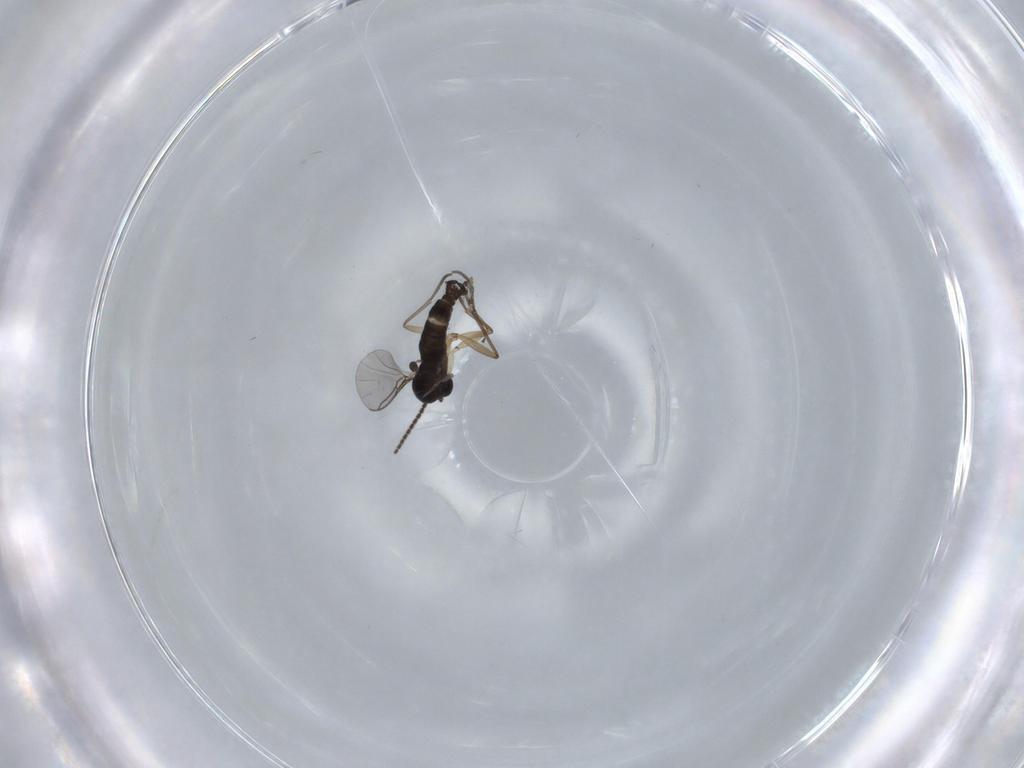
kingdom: Animalia
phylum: Arthropoda
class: Insecta
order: Diptera
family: Cecidomyiidae
